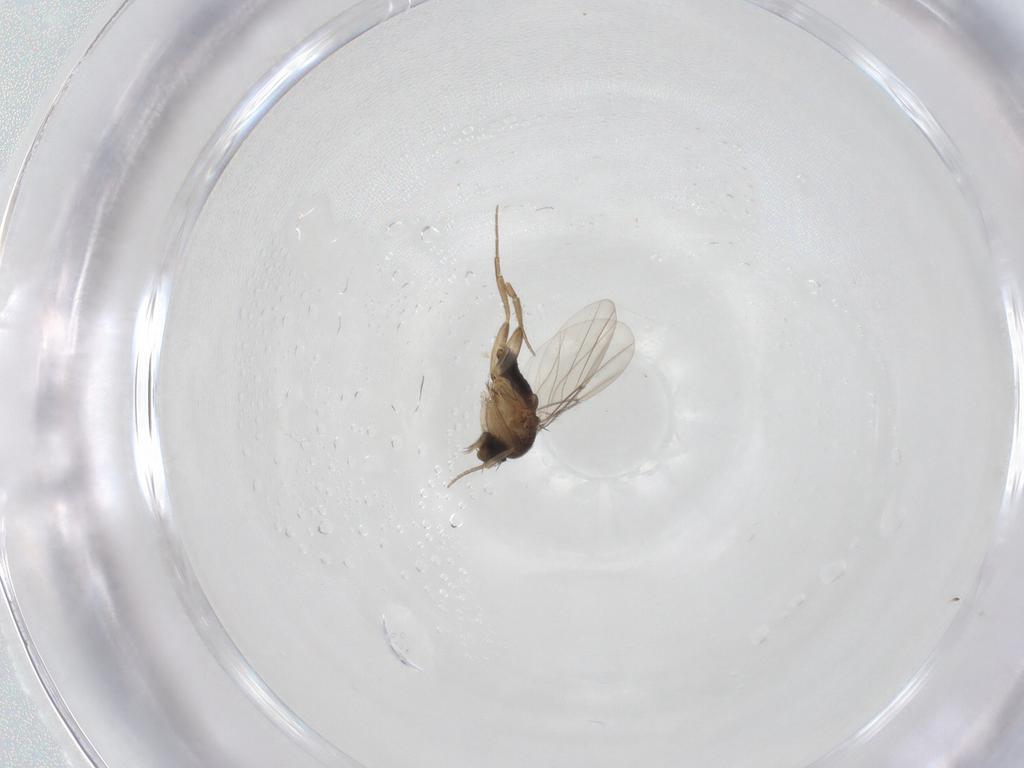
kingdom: Animalia
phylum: Arthropoda
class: Insecta
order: Diptera
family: Phoridae
